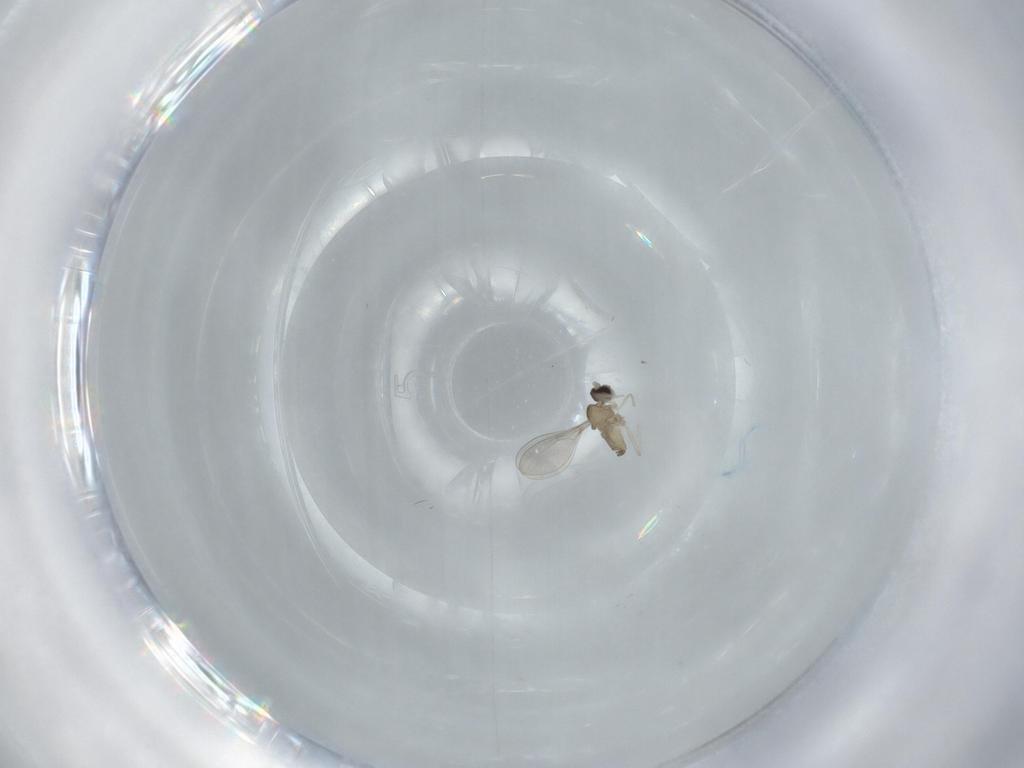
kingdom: Animalia
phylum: Arthropoda
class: Insecta
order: Diptera
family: Cecidomyiidae
